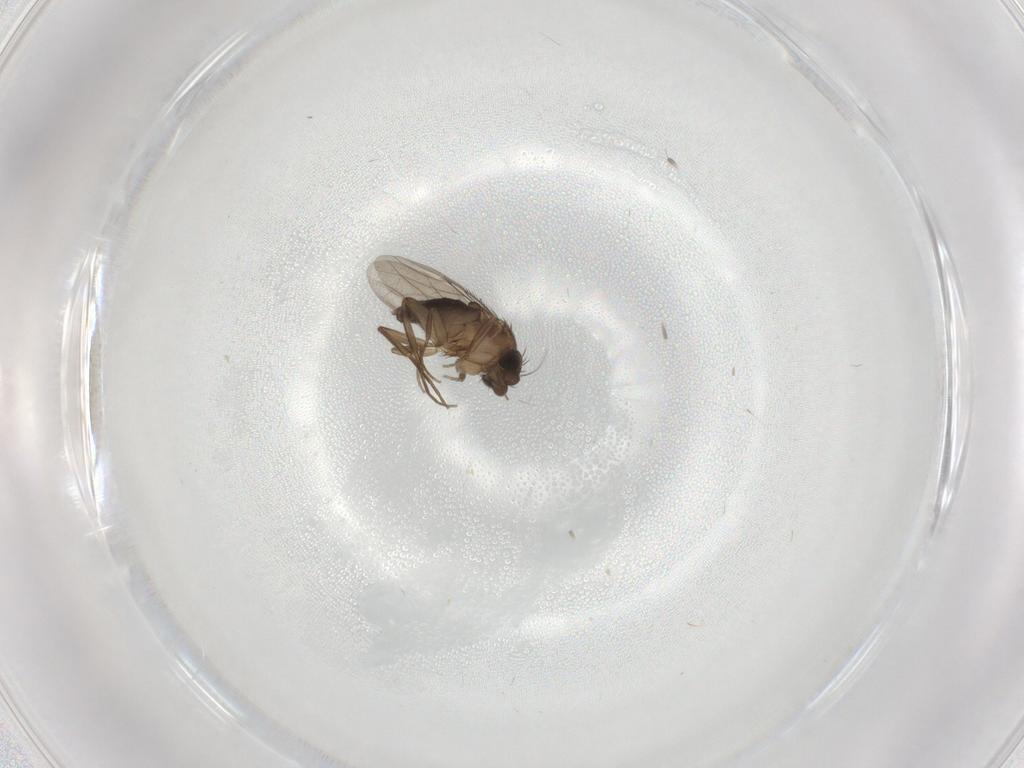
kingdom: Animalia
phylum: Arthropoda
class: Insecta
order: Diptera
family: Phoridae
